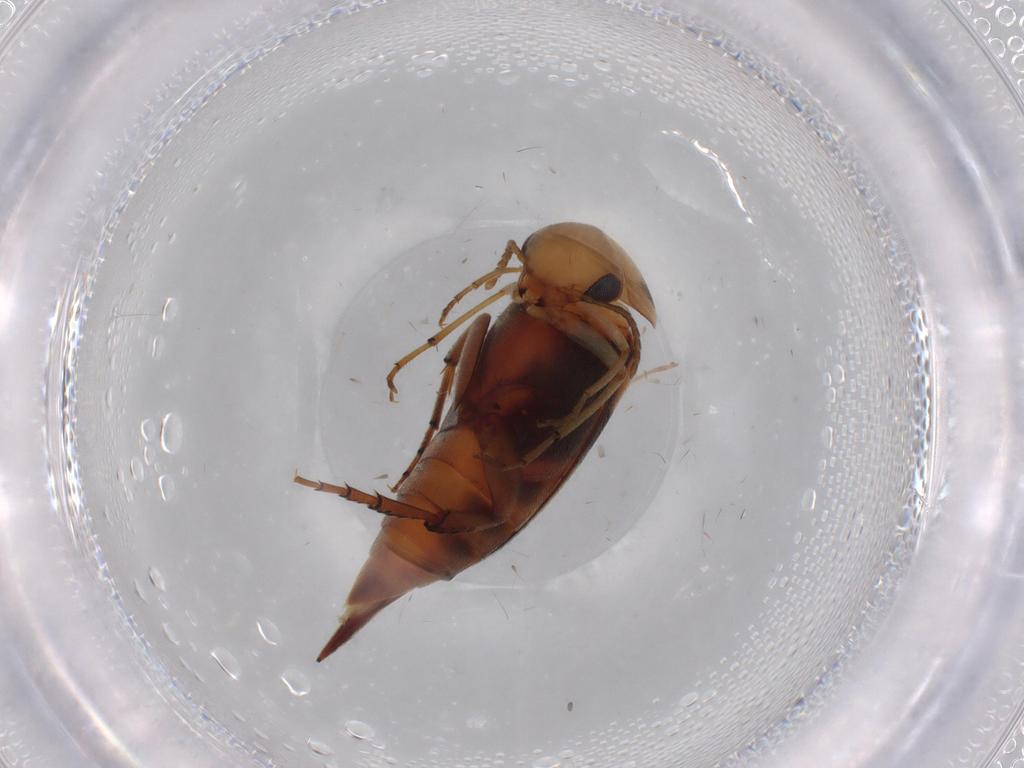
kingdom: Animalia
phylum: Arthropoda
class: Insecta
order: Coleoptera
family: Mordellidae
